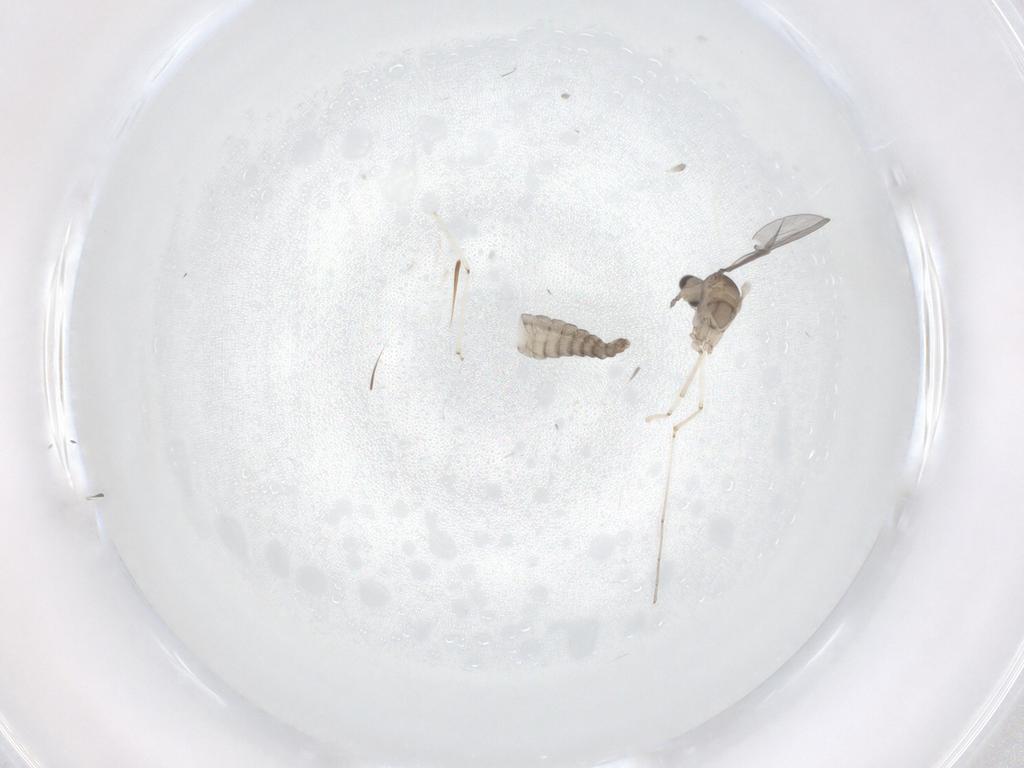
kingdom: Animalia
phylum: Arthropoda
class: Insecta
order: Diptera
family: Cecidomyiidae
